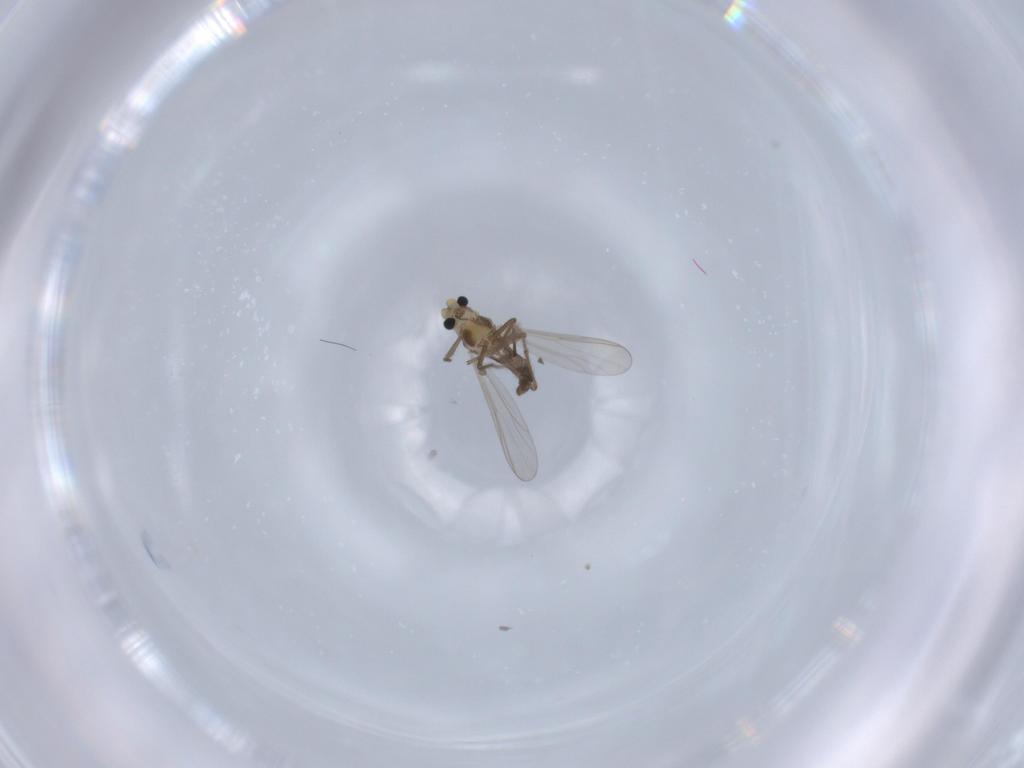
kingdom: Animalia
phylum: Arthropoda
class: Insecta
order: Diptera
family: Chironomidae
